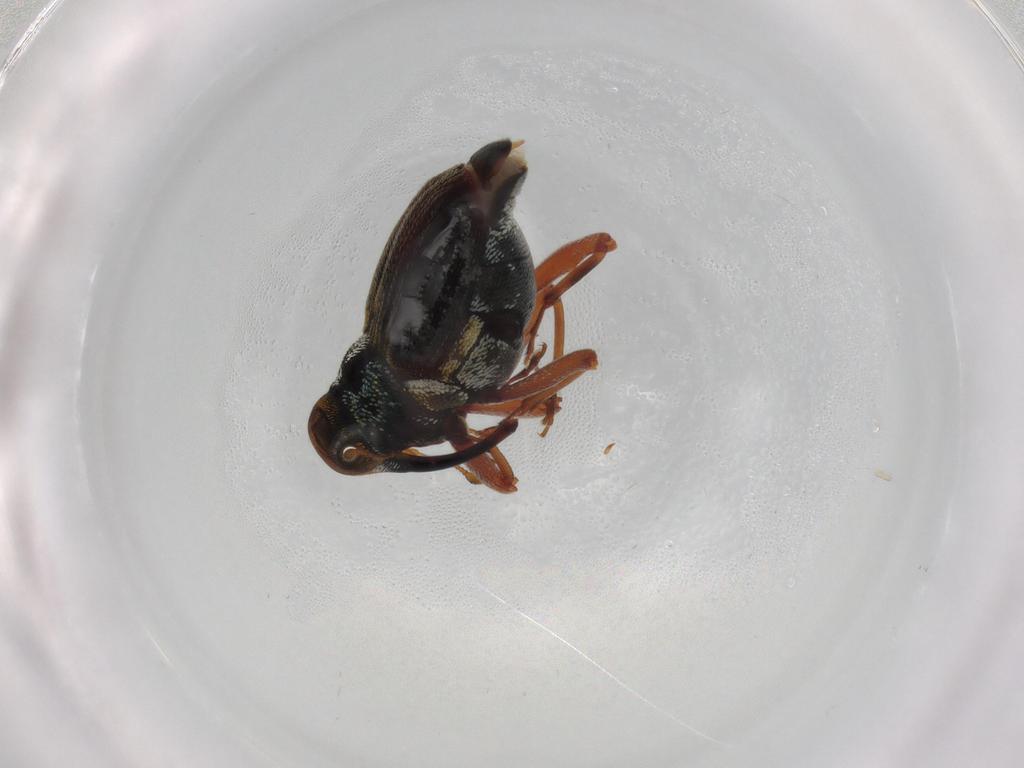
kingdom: Animalia
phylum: Arthropoda
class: Insecta
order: Coleoptera
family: Curculionidae
